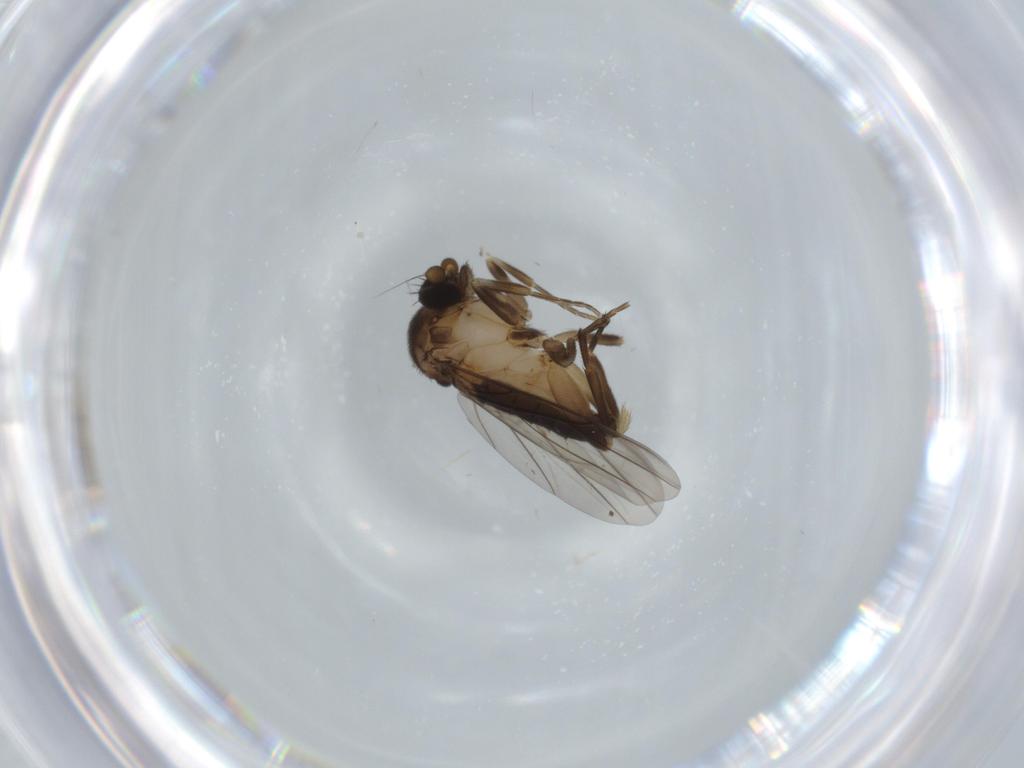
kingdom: Animalia
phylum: Arthropoda
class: Insecta
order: Diptera
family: Phoridae
